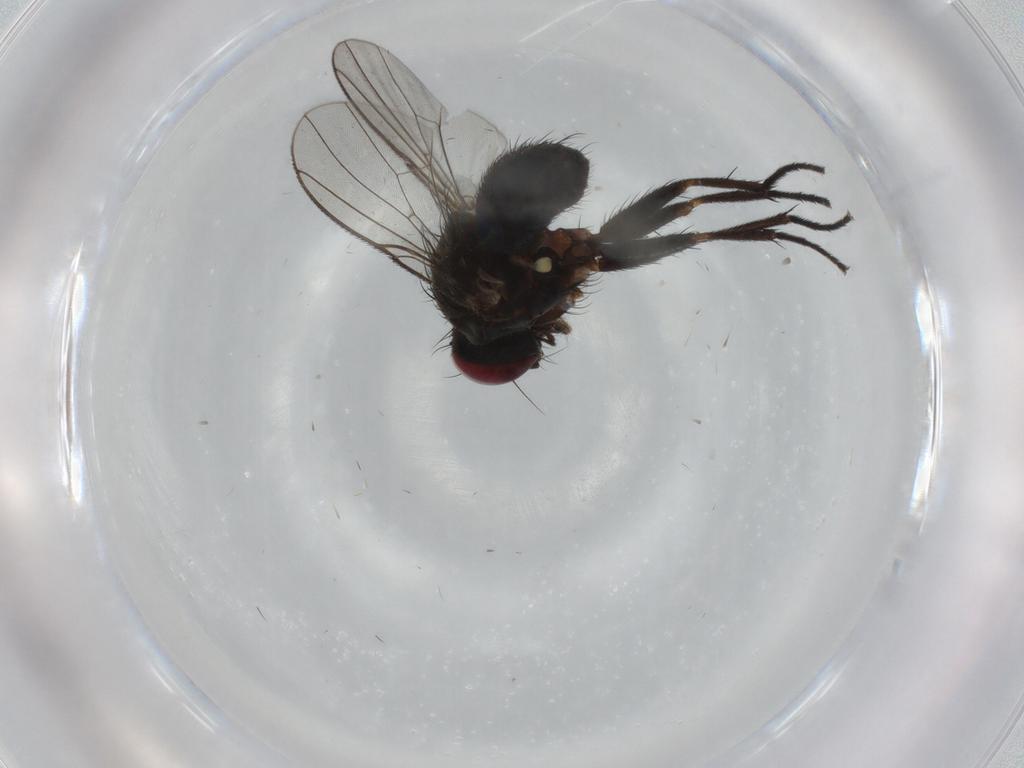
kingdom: Animalia
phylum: Arthropoda
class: Insecta
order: Diptera
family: Muscidae
